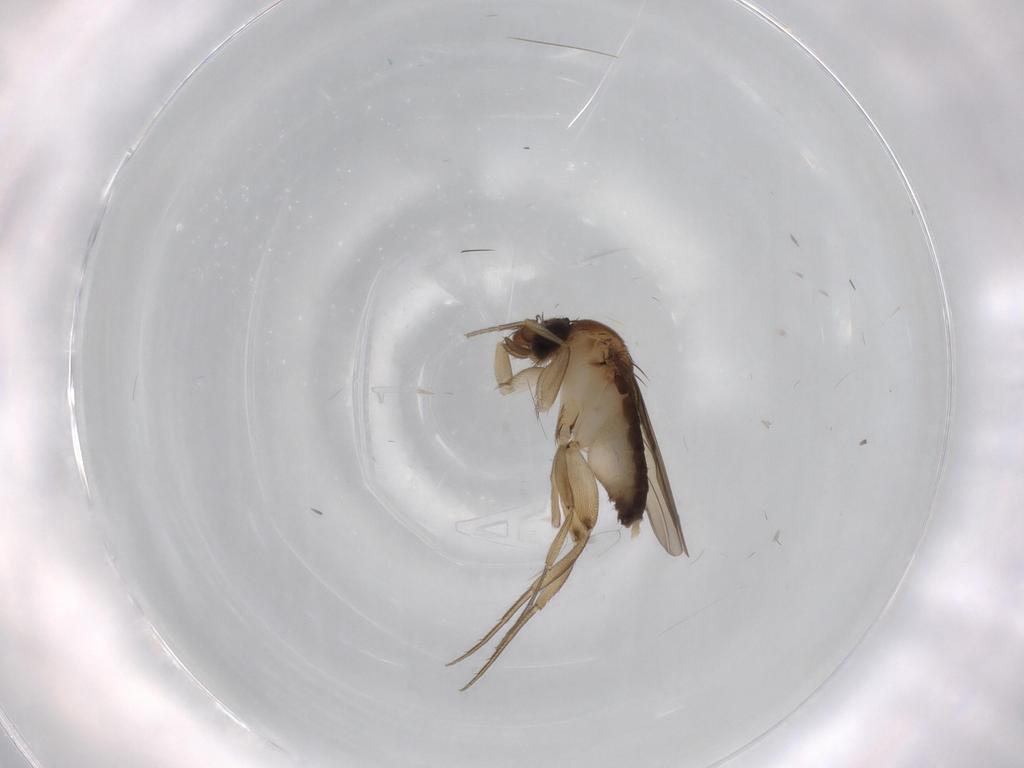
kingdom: Animalia
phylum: Arthropoda
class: Insecta
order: Diptera
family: Phoridae
